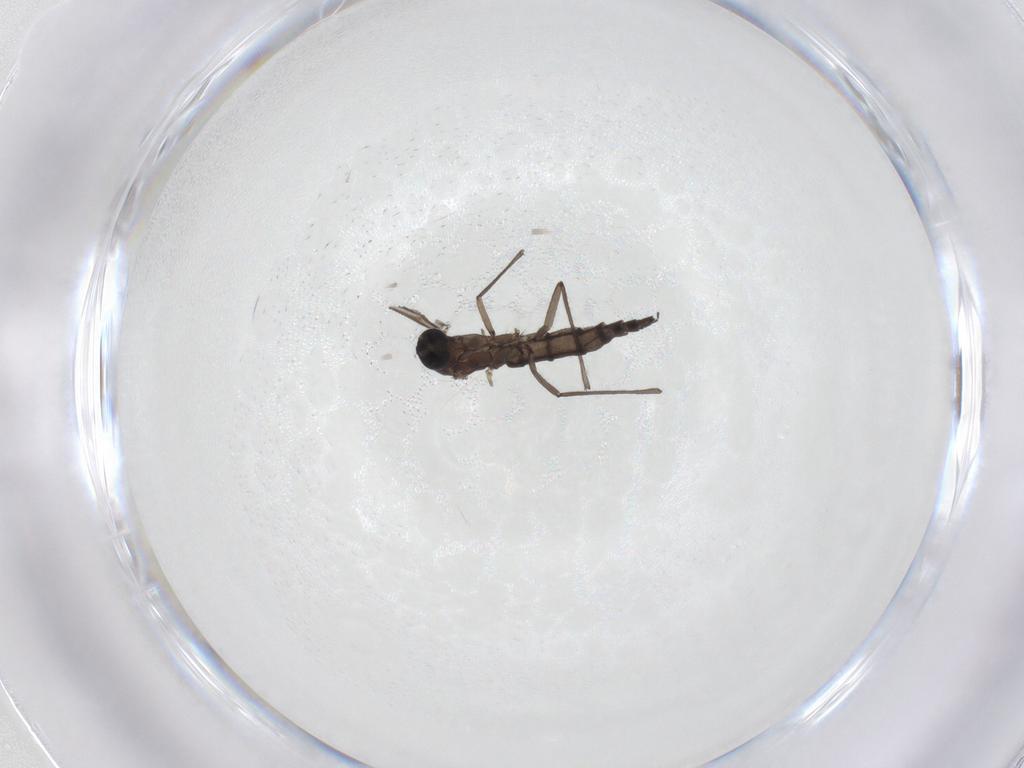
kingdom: Animalia
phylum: Arthropoda
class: Insecta
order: Diptera
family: Sciaridae
